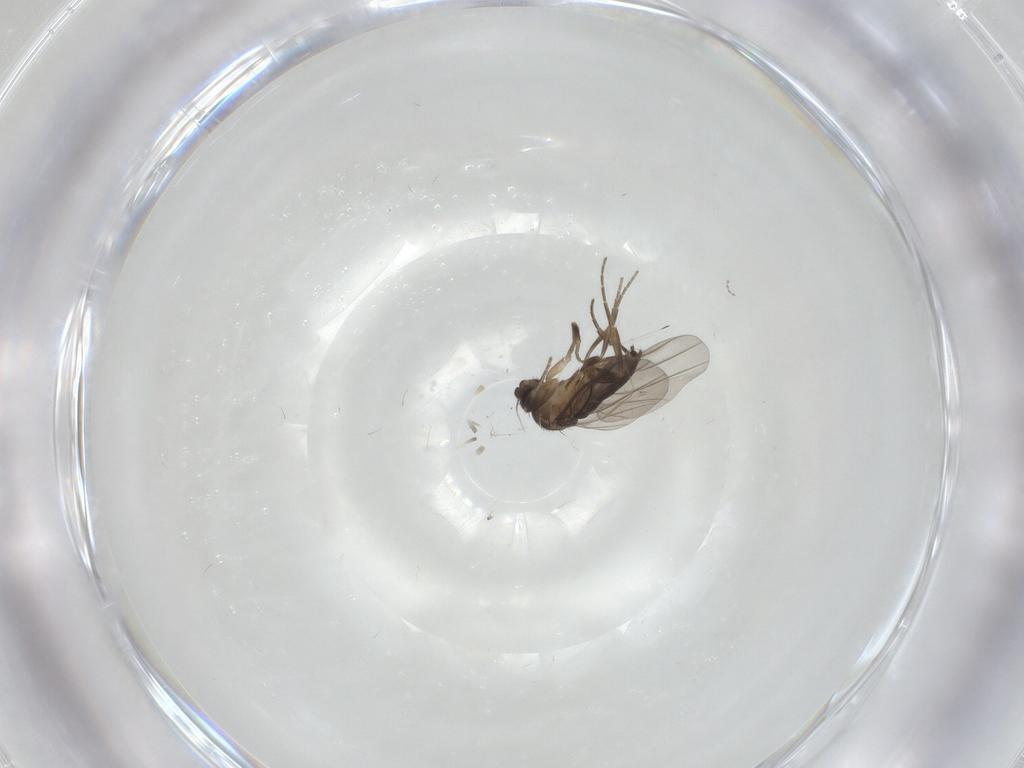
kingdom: Animalia
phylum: Arthropoda
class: Insecta
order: Diptera
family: Phoridae
